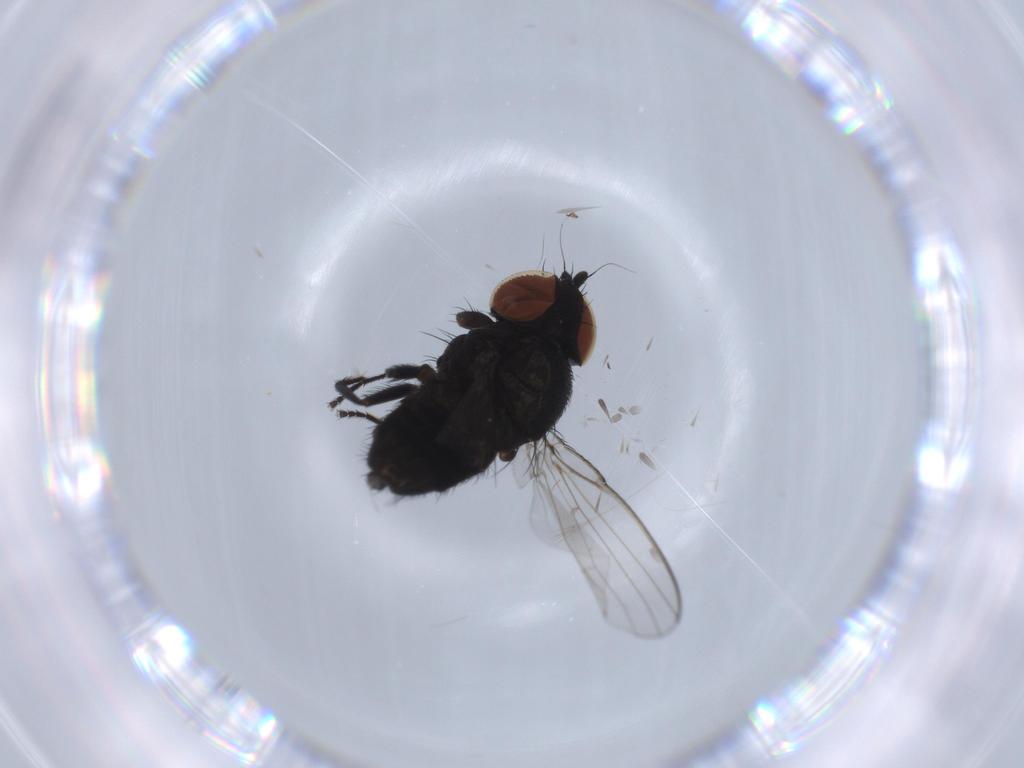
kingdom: Animalia
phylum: Arthropoda
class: Insecta
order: Diptera
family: Milichiidae
